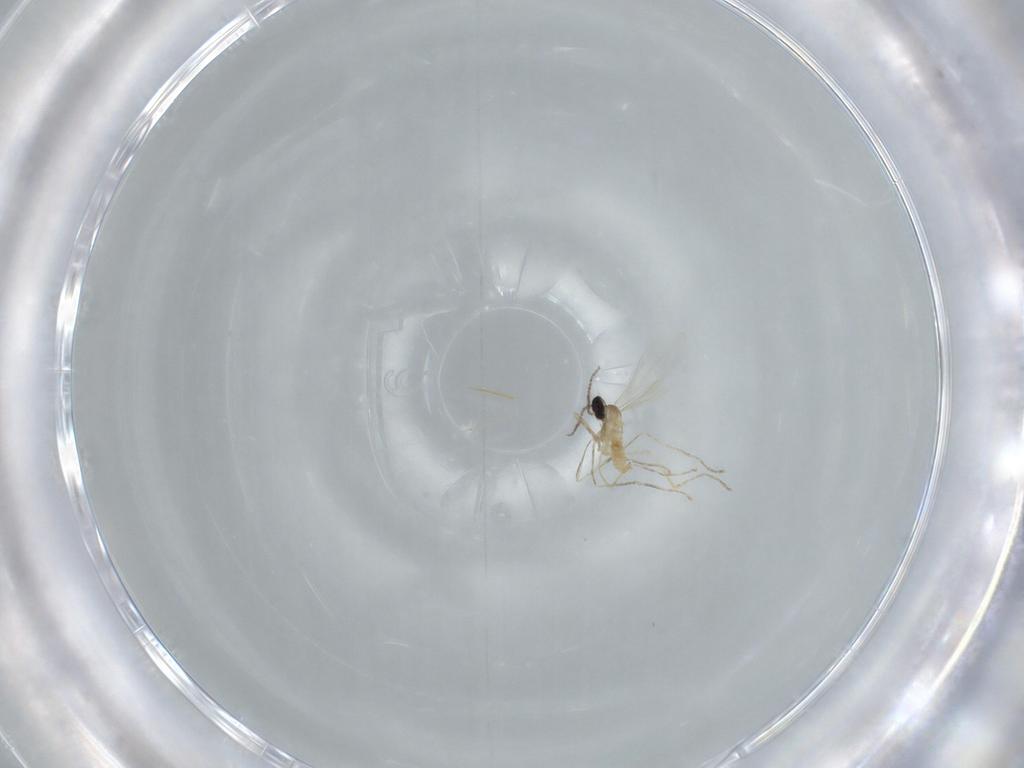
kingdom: Animalia
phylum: Arthropoda
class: Insecta
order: Diptera
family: Cecidomyiidae
